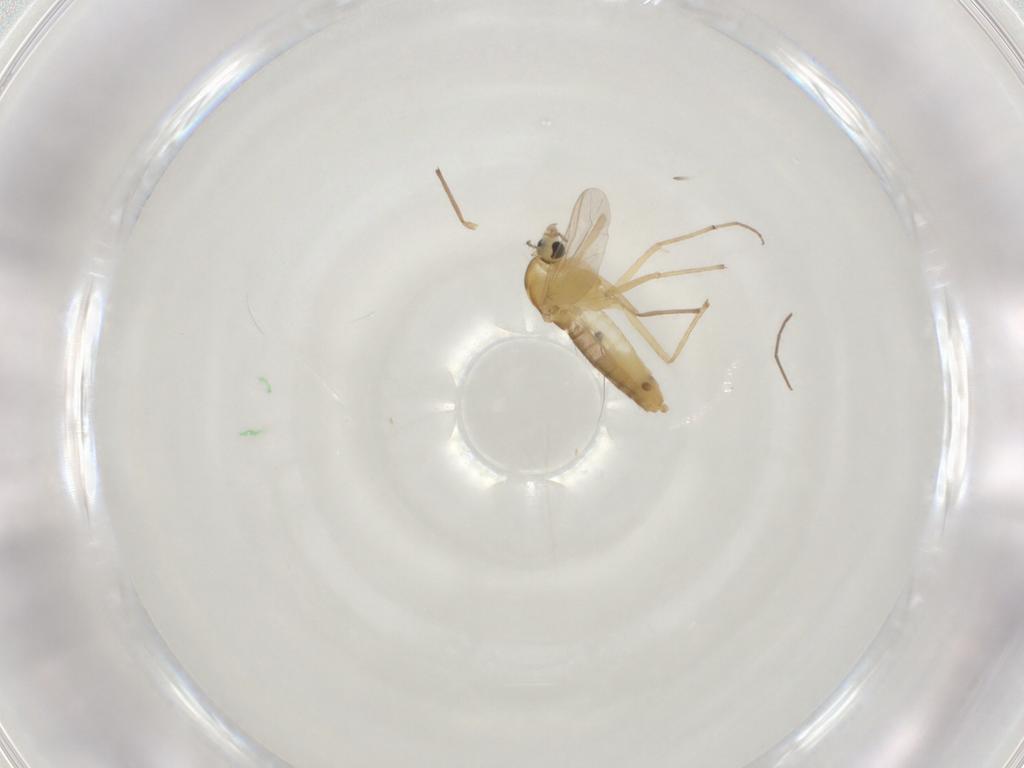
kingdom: Animalia
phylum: Arthropoda
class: Insecta
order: Diptera
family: Chironomidae
